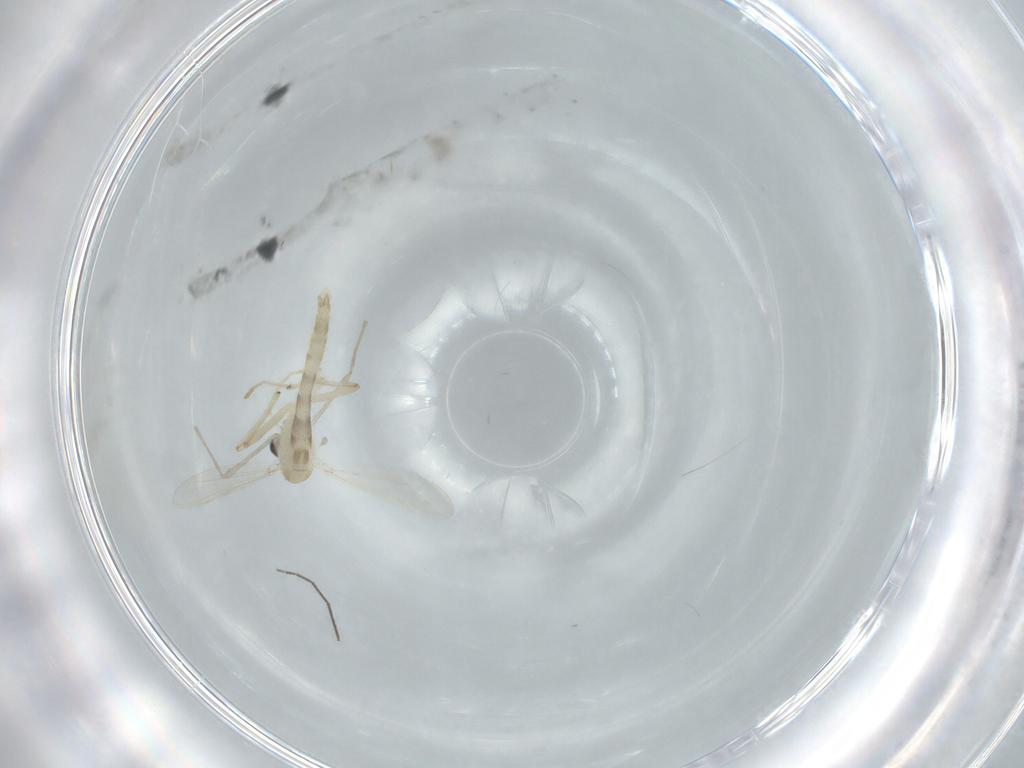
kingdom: Animalia
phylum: Arthropoda
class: Insecta
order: Diptera
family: Chironomidae
